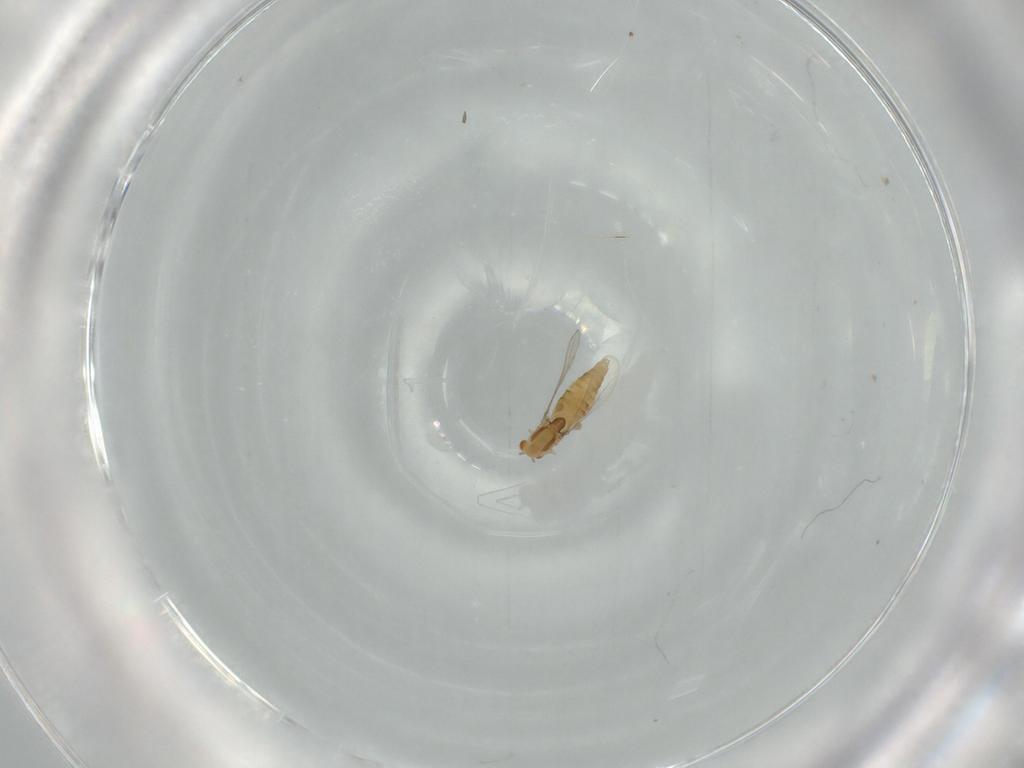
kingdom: Animalia
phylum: Arthropoda
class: Insecta
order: Diptera
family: Chironomidae
